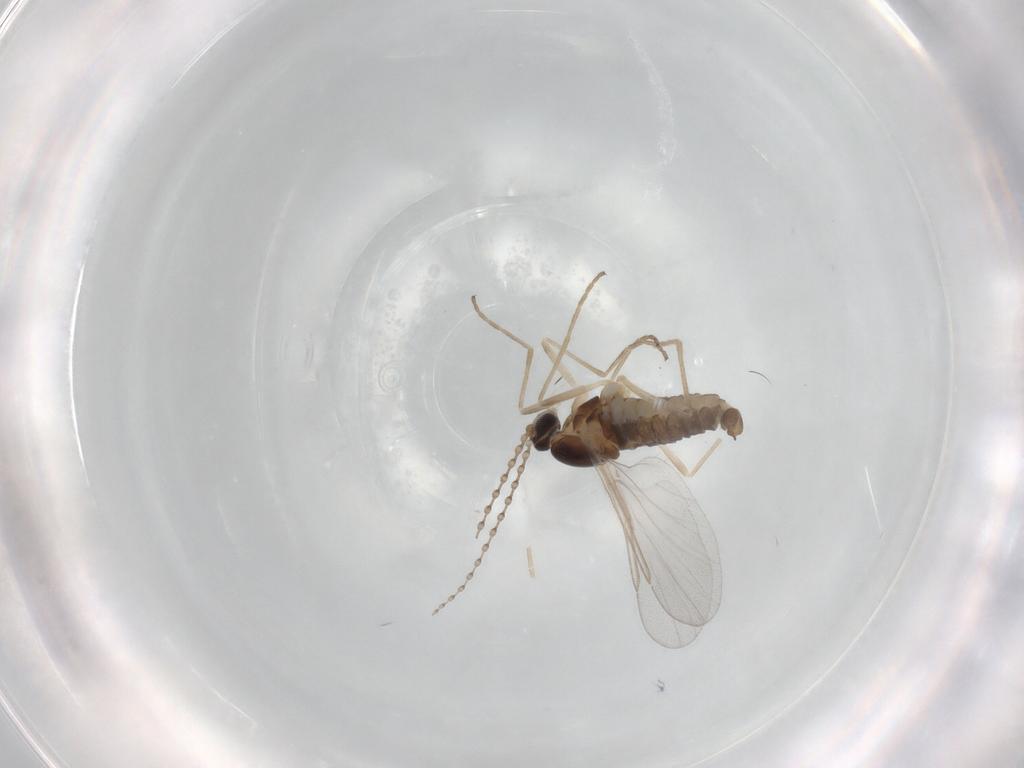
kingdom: Animalia
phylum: Arthropoda
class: Insecta
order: Diptera
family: Cecidomyiidae
